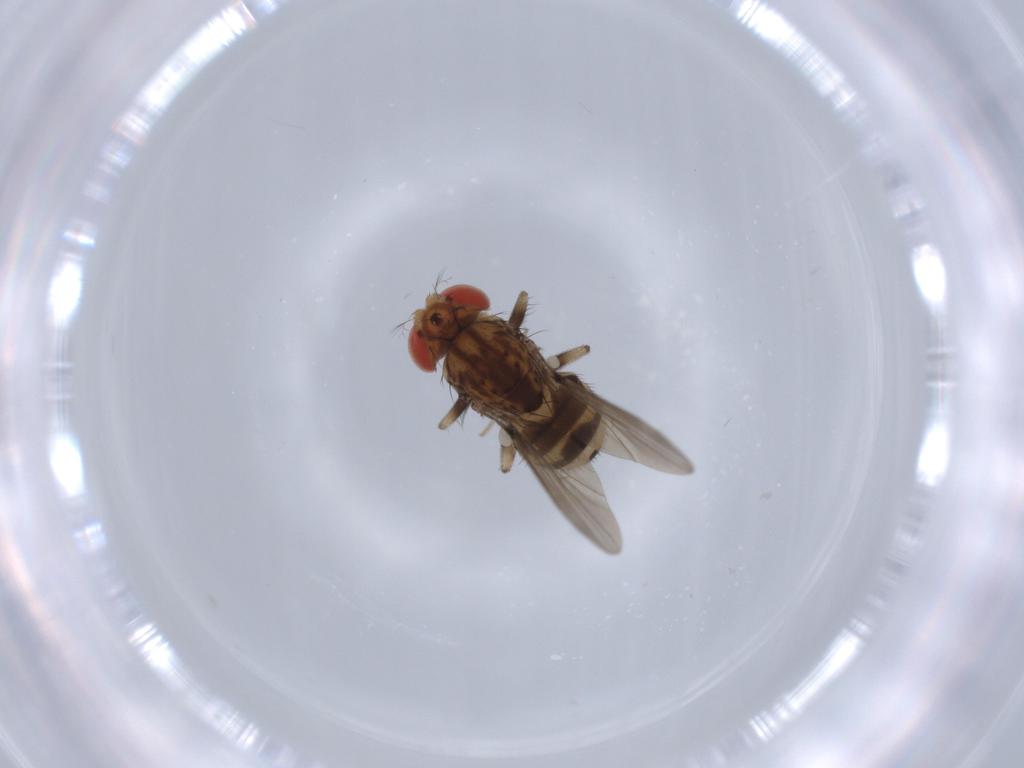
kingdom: Animalia
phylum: Arthropoda
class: Insecta
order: Diptera
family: Drosophilidae
